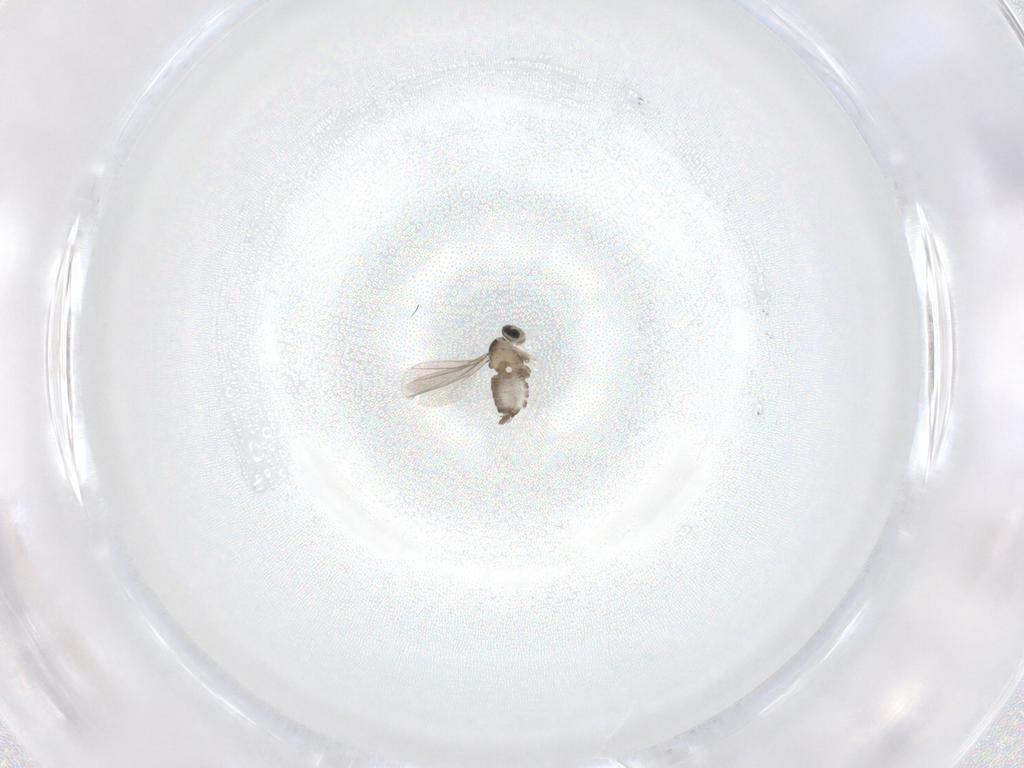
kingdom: Animalia
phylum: Arthropoda
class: Insecta
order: Diptera
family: Cecidomyiidae
